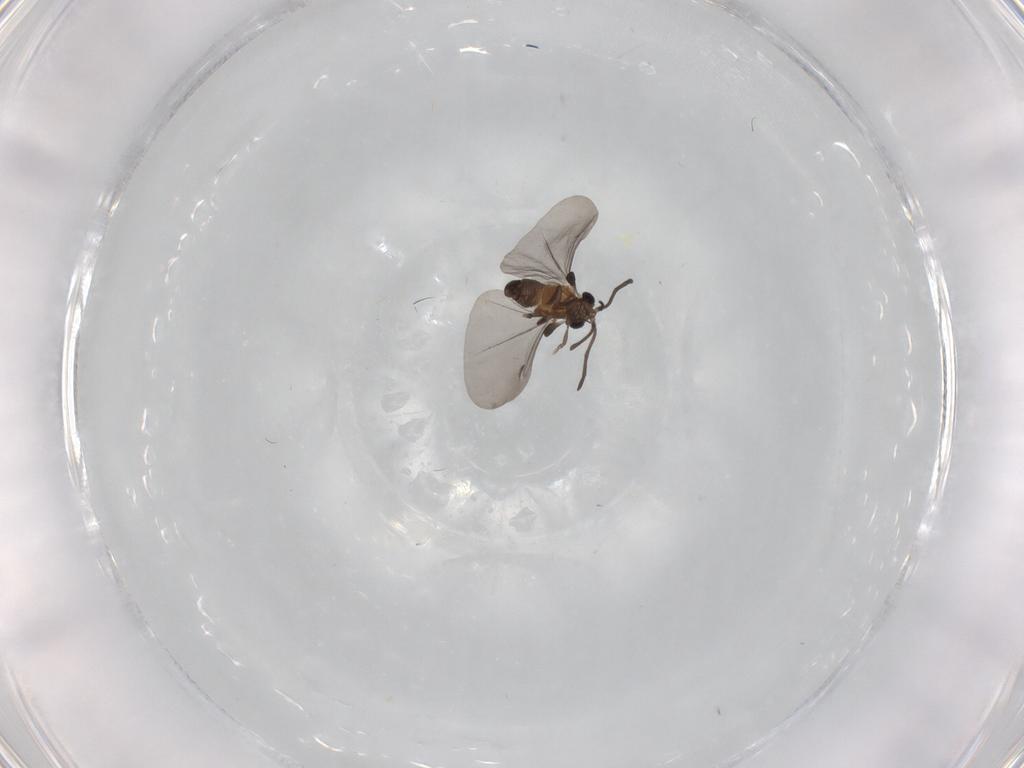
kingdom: Animalia
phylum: Arthropoda
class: Insecta
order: Strepsiptera
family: Myrmecolacidae
